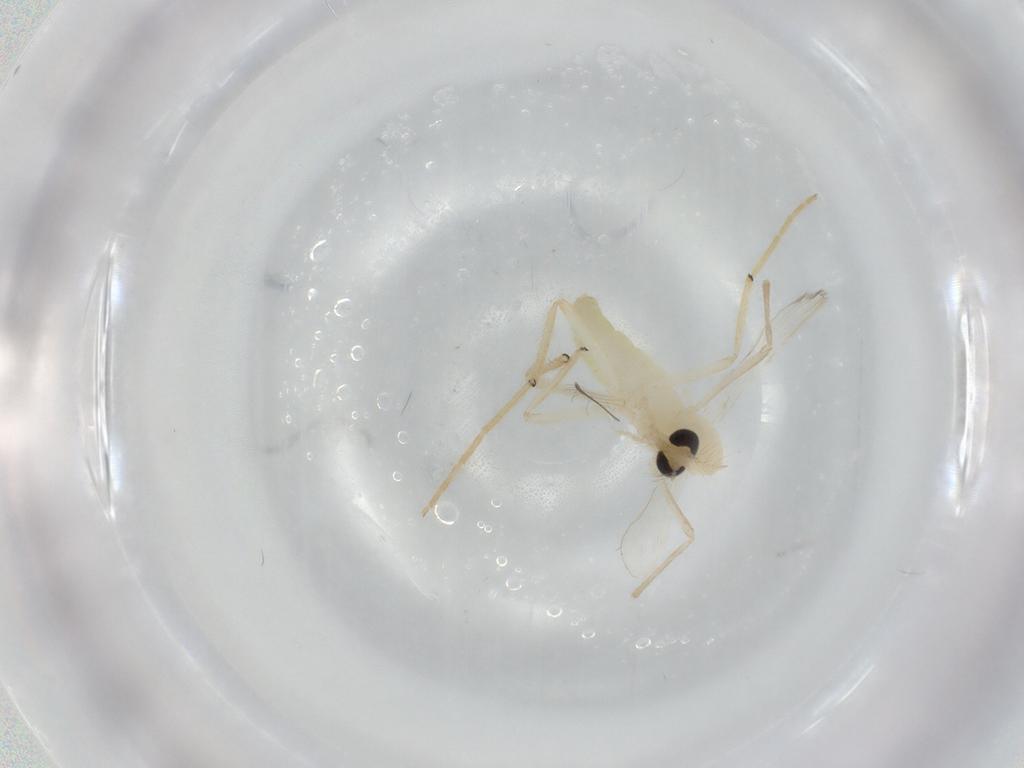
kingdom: Animalia
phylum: Arthropoda
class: Insecta
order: Diptera
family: Chironomidae
